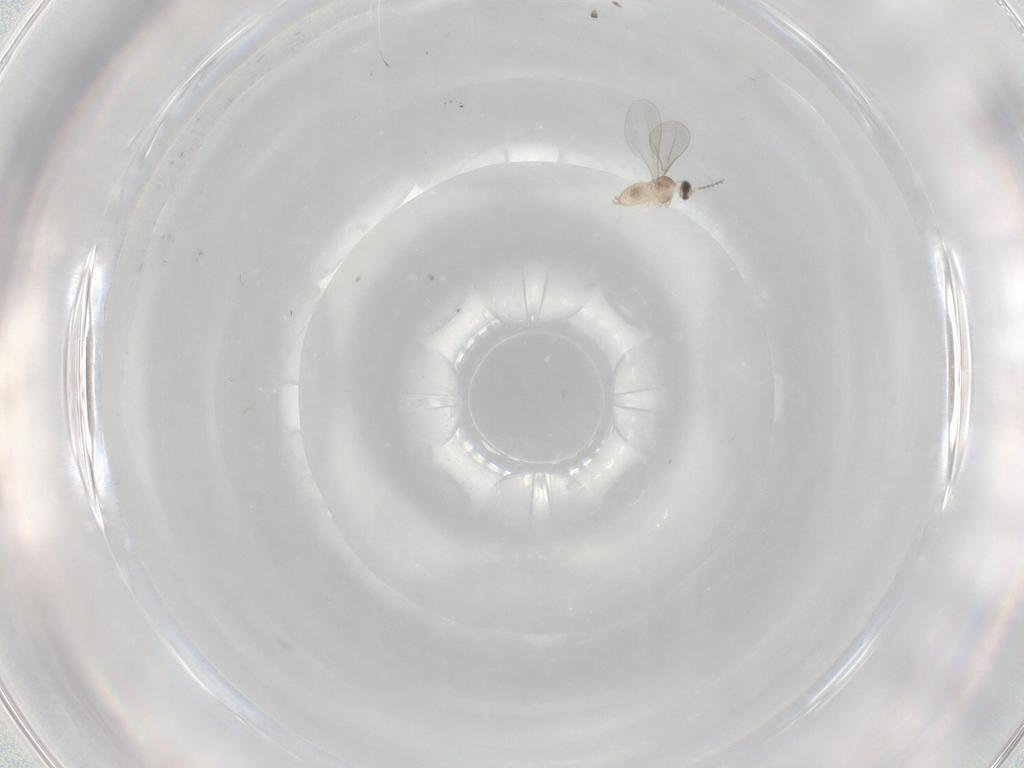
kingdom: Animalia
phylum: Arthropoda
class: Insecta
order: Diptera
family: Cecidomyiidae
